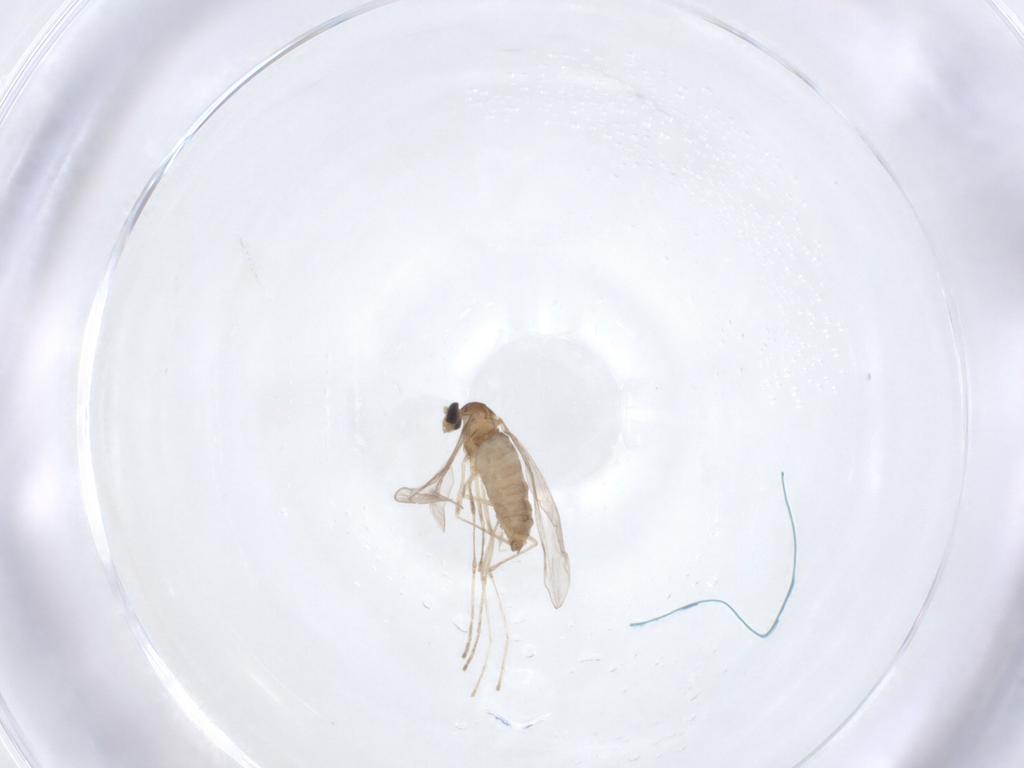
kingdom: Animalia
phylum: Arthropoda
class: Insecta
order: Diptera
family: Cecidomyiidae
